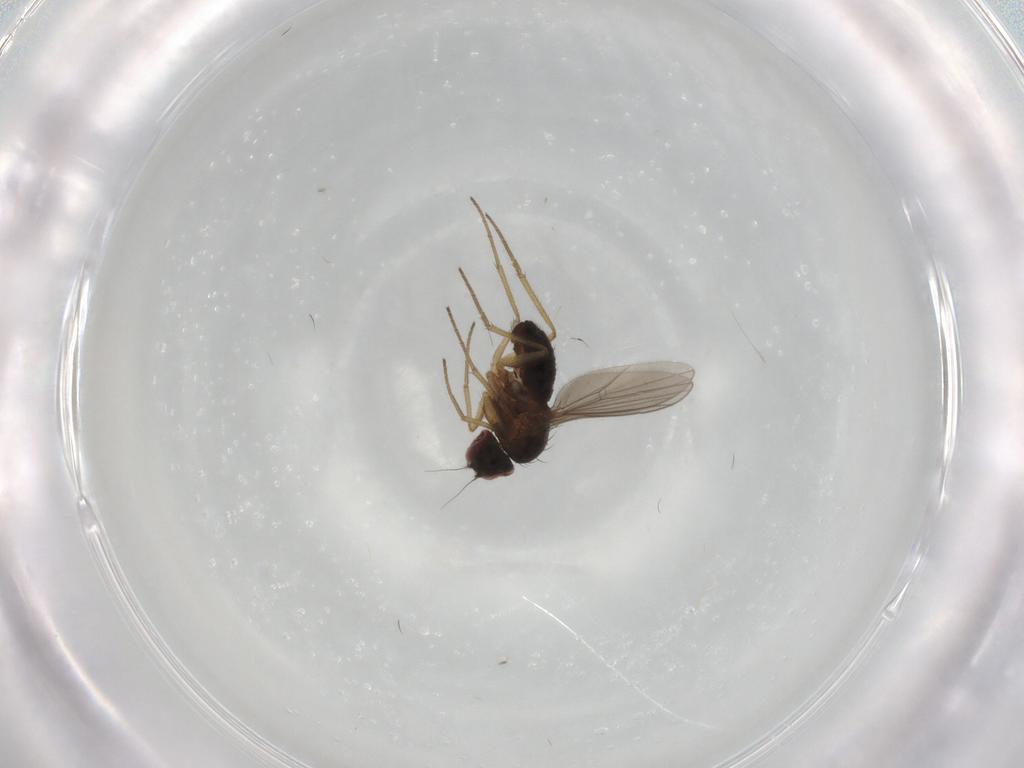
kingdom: Animalia
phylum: Arthropoda
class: Insecta
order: Diptera
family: Dolichopodidae
